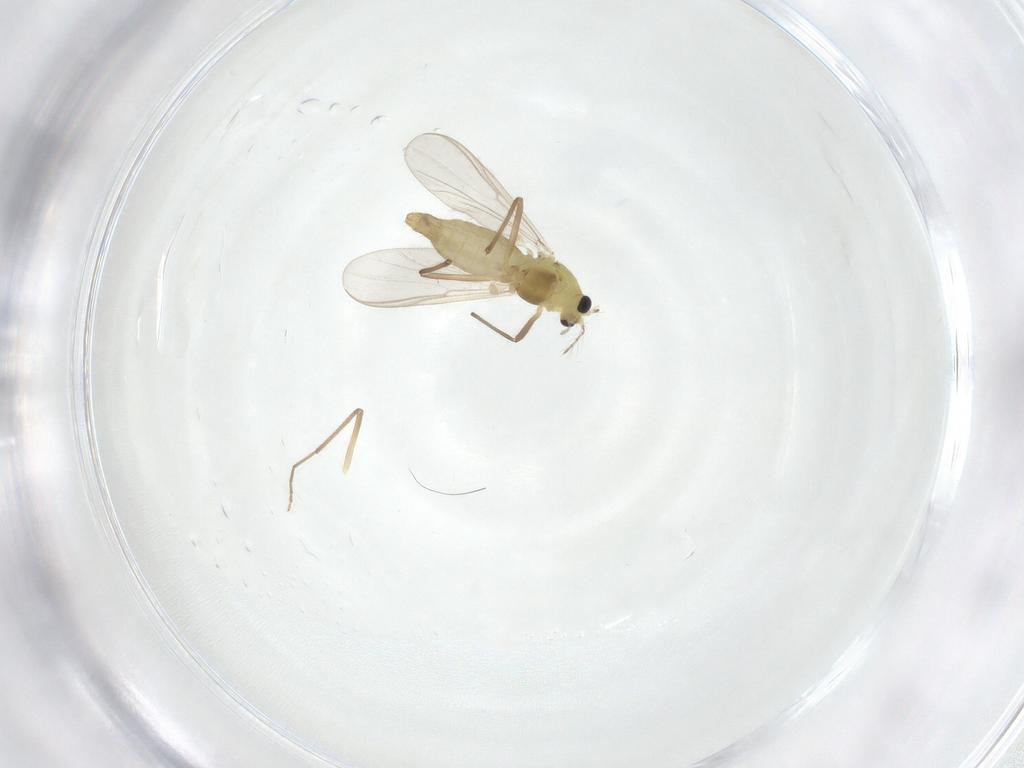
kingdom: Animalia
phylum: Arthropoda
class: Insecta
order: Diptera
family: Chironomidae
